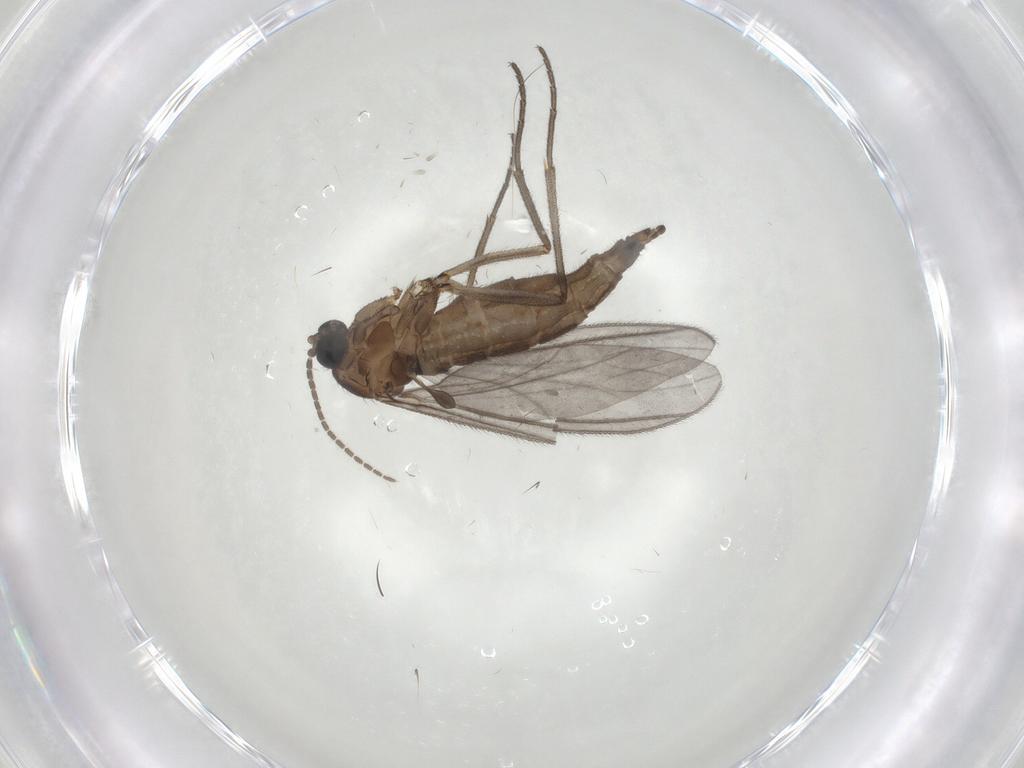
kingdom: Animalia
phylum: Arthropoda
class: Insecta
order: Diptera
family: Sciaridae
